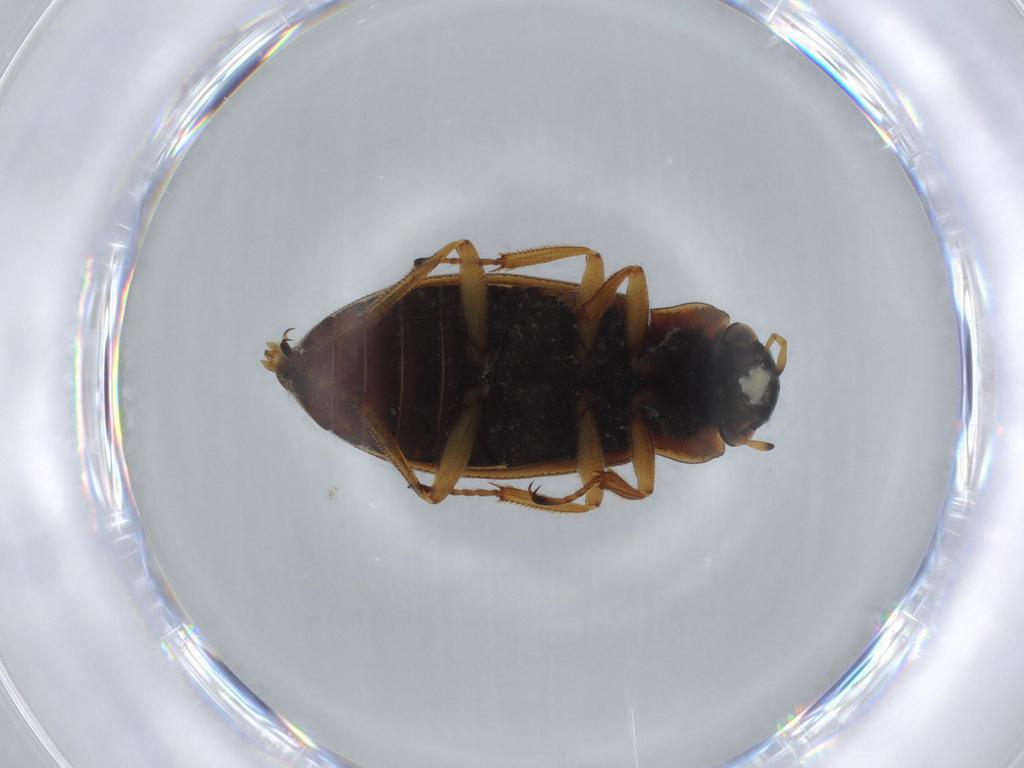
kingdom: Animalia
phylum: Arthropoda
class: Insecta
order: Coleoptera
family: Helophoridae
